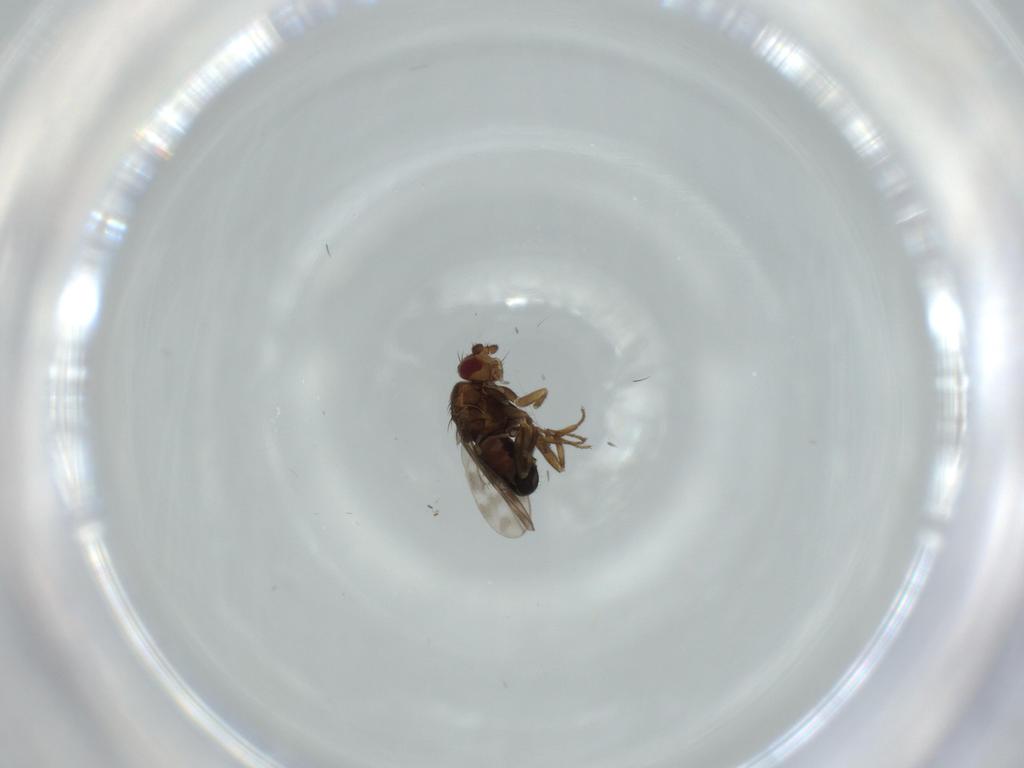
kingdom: Animalia
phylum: Arthropoda
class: Insecta
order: Diptera
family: Sphaeroceridae
